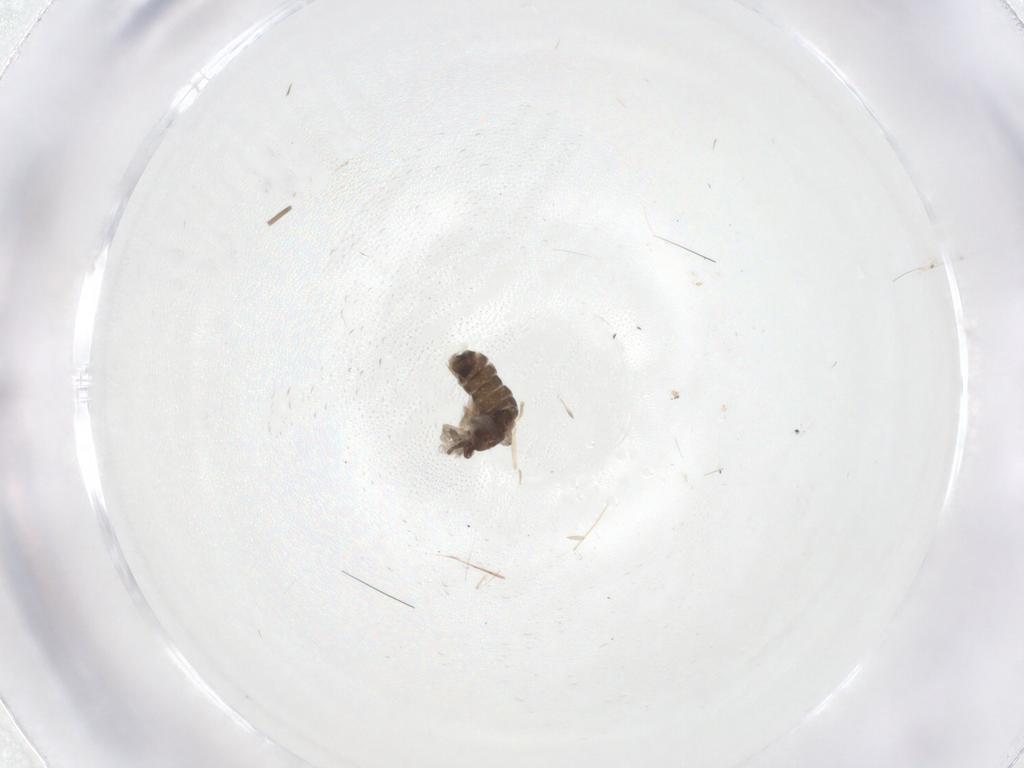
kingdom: Animalia
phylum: Arthropoda
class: Insecta
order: Diptera
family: Chironomidae
